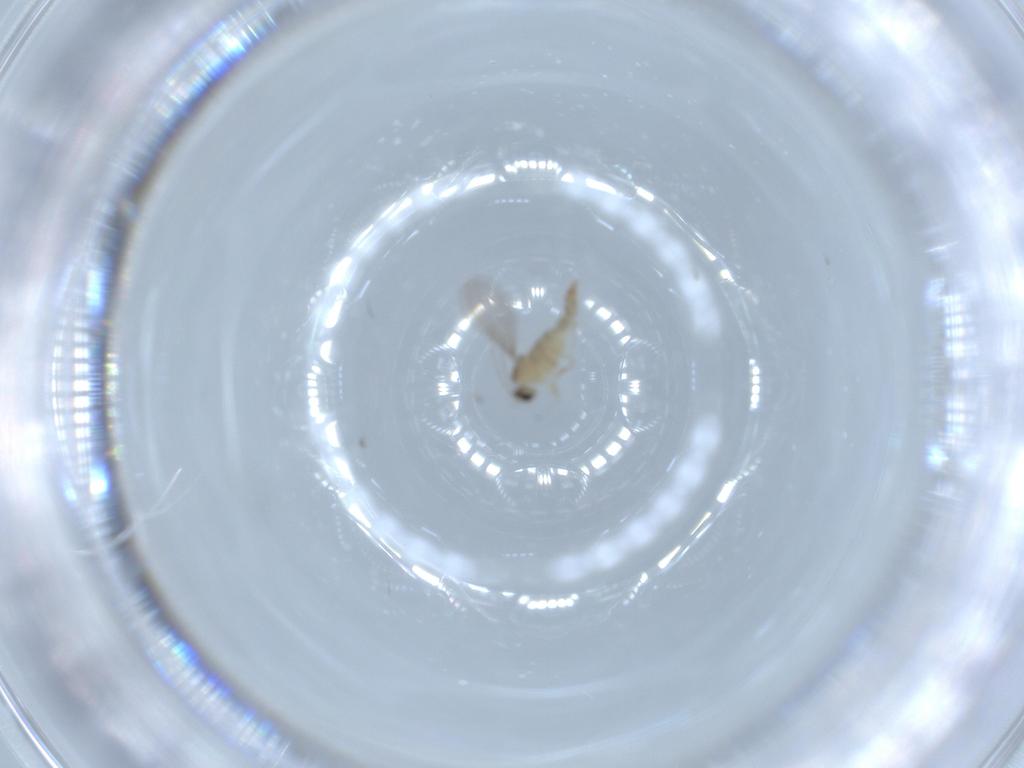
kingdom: Animalia
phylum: Arthropoda
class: Insecta
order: Diptera
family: Cecidomyiidae
